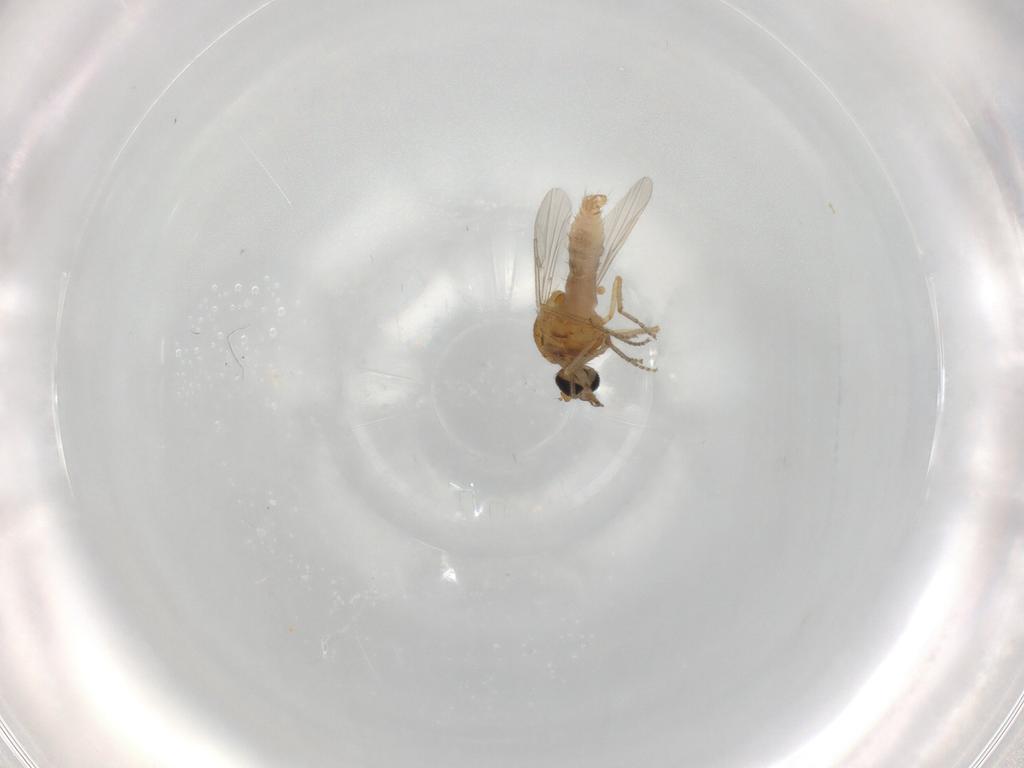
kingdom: Animalia
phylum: Arthropoda
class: Insecta
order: Diptera
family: Ceratopogonidae
